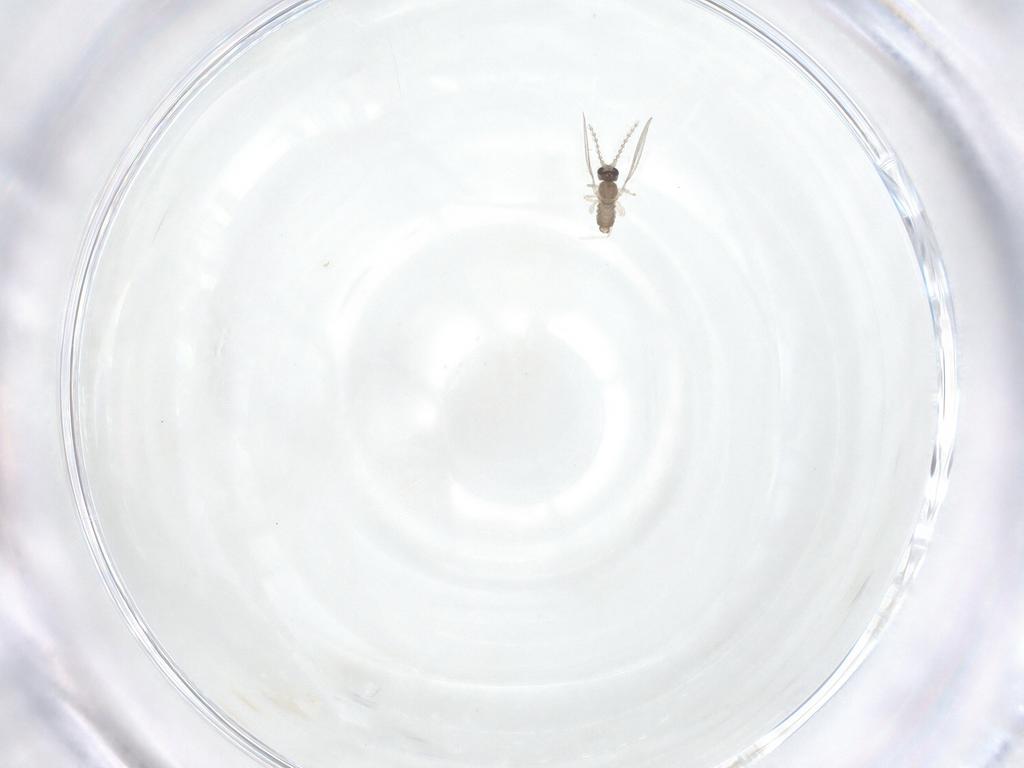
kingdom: Animalia
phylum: Arthropoda
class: Insecta
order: Diptera
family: Cecidomyiidae
